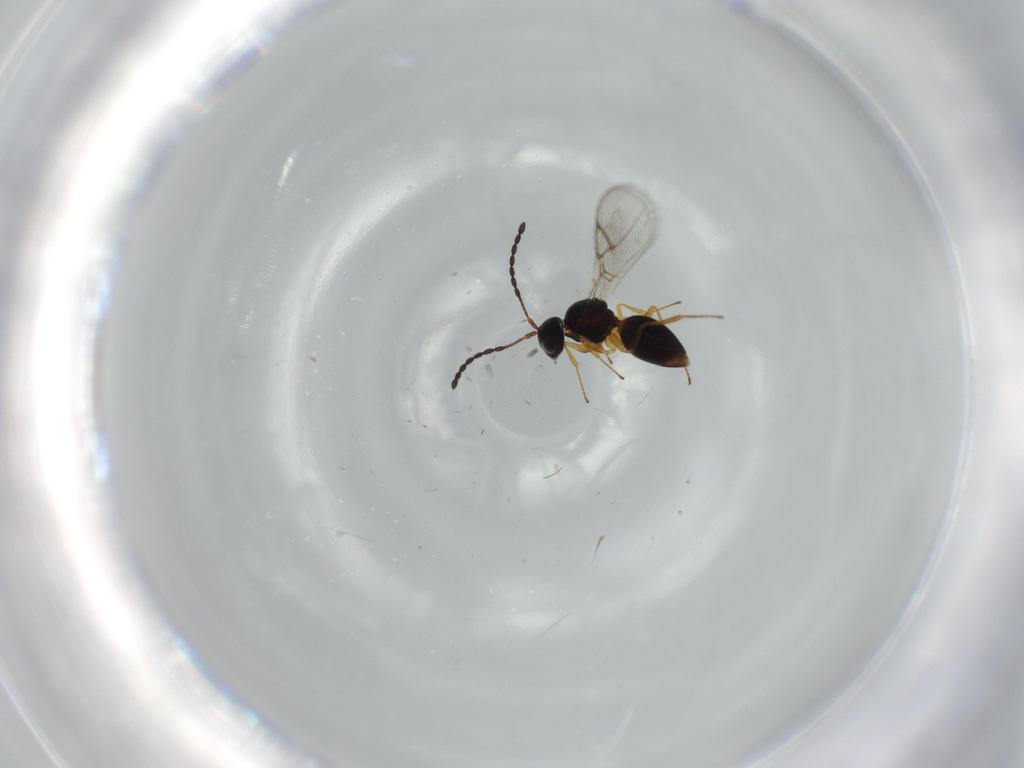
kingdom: Animalia
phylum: Arthropoda
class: Insecta
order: Hymenoptera
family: Figitidae
